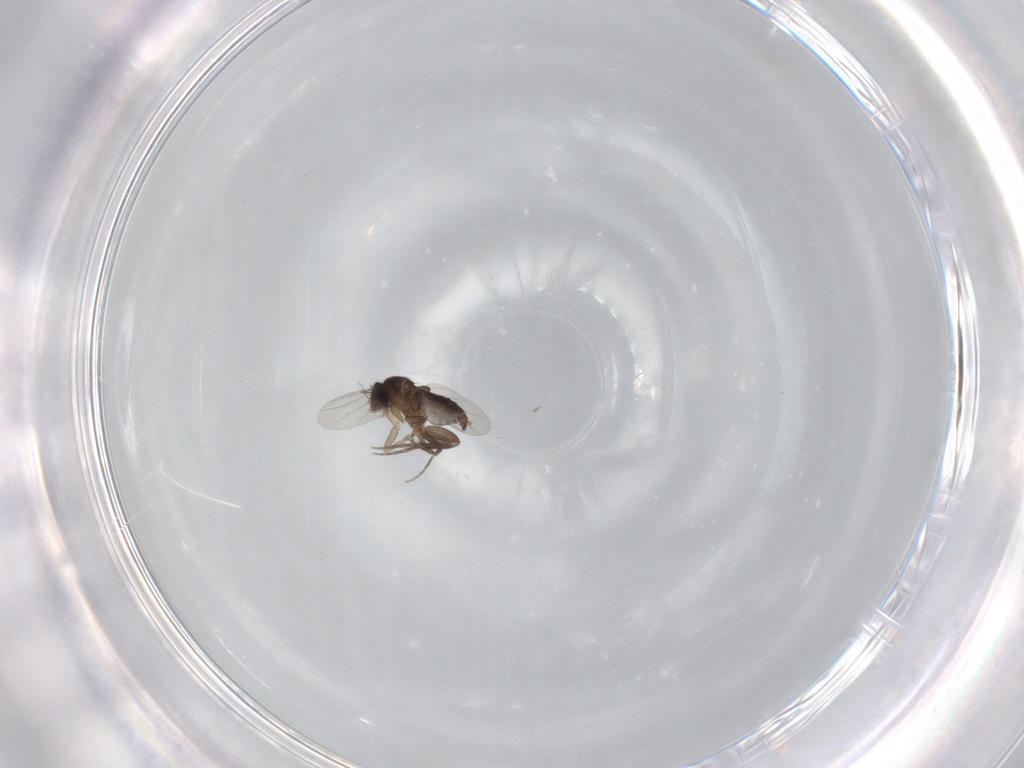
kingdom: Animalia
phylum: Arthropoda
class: Insecta
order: Diptera
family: Phoridae
